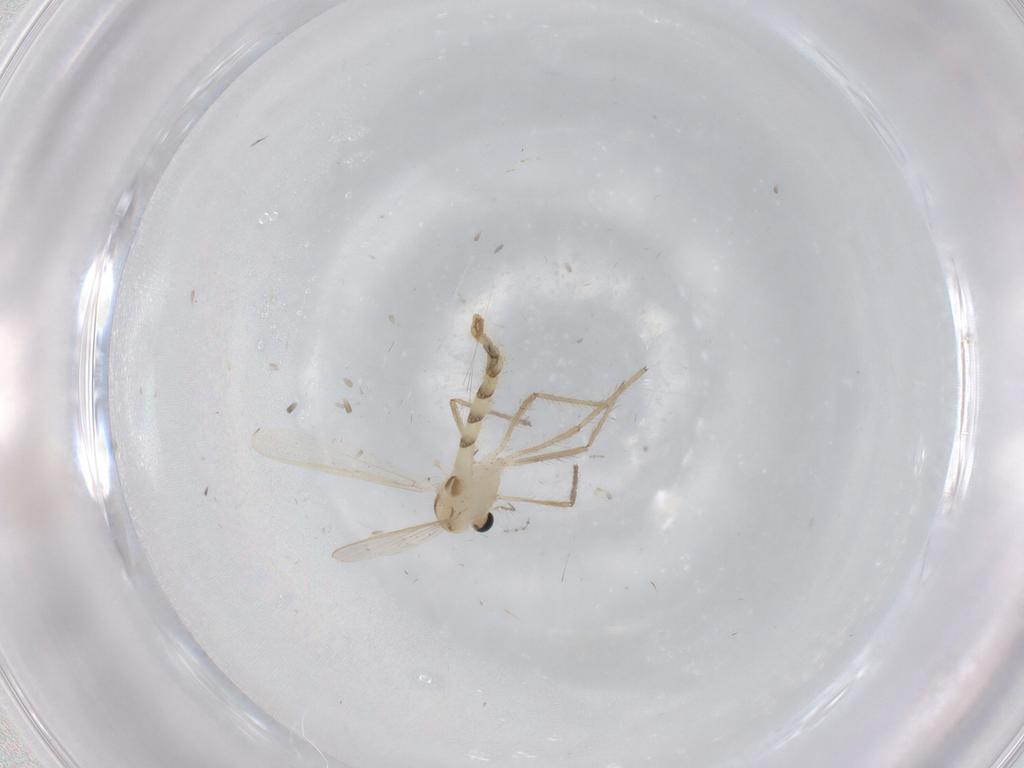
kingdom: Animalia
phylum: Arthropoda
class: Insecta
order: Diptera
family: Chironomidae
